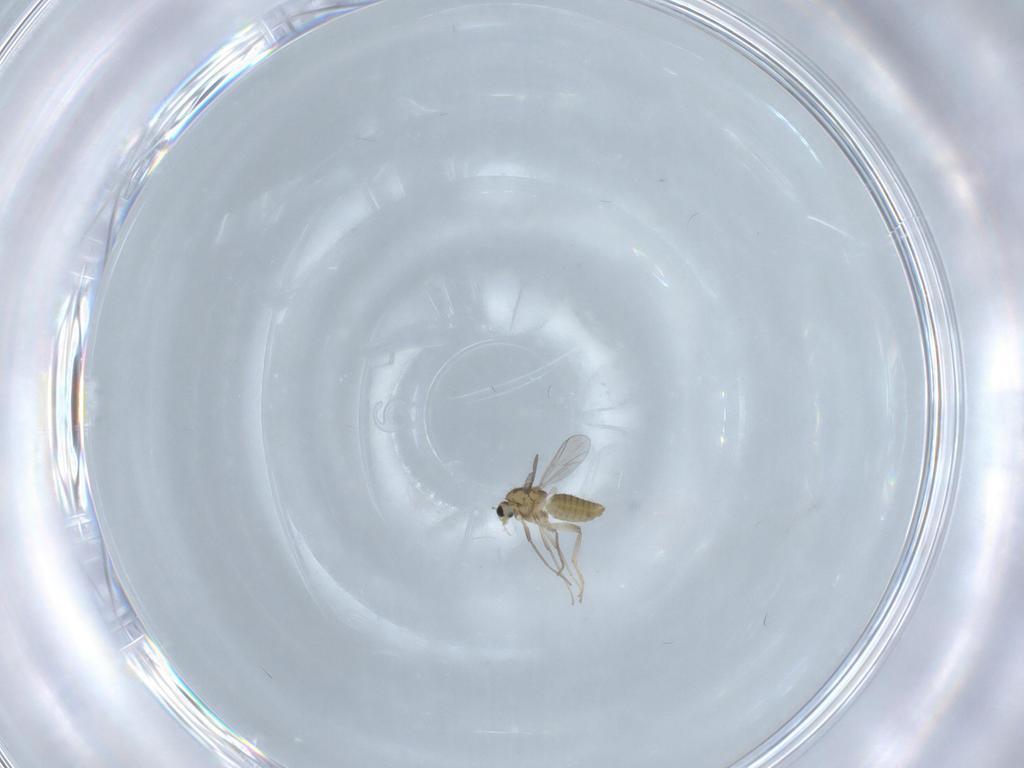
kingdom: Animalia
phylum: Arthropoda
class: Insecta
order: Diptera
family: Chironomidae
